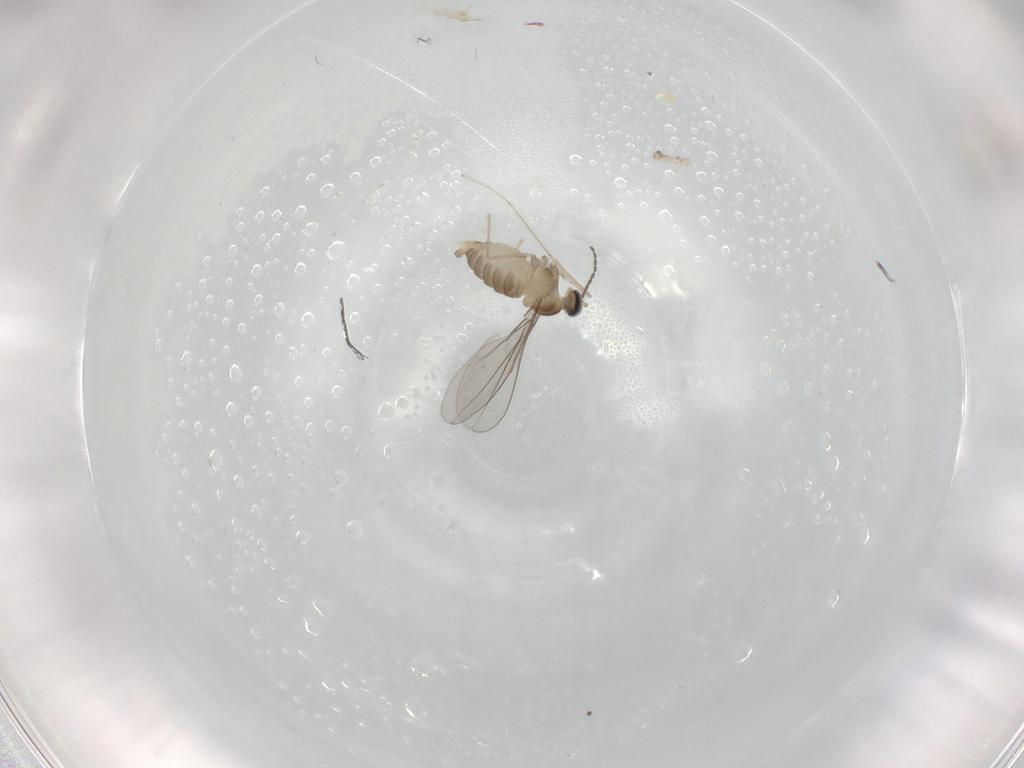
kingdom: Animalia
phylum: Arthropoda
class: Insecta
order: Diptera
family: Cecidomyiidae
